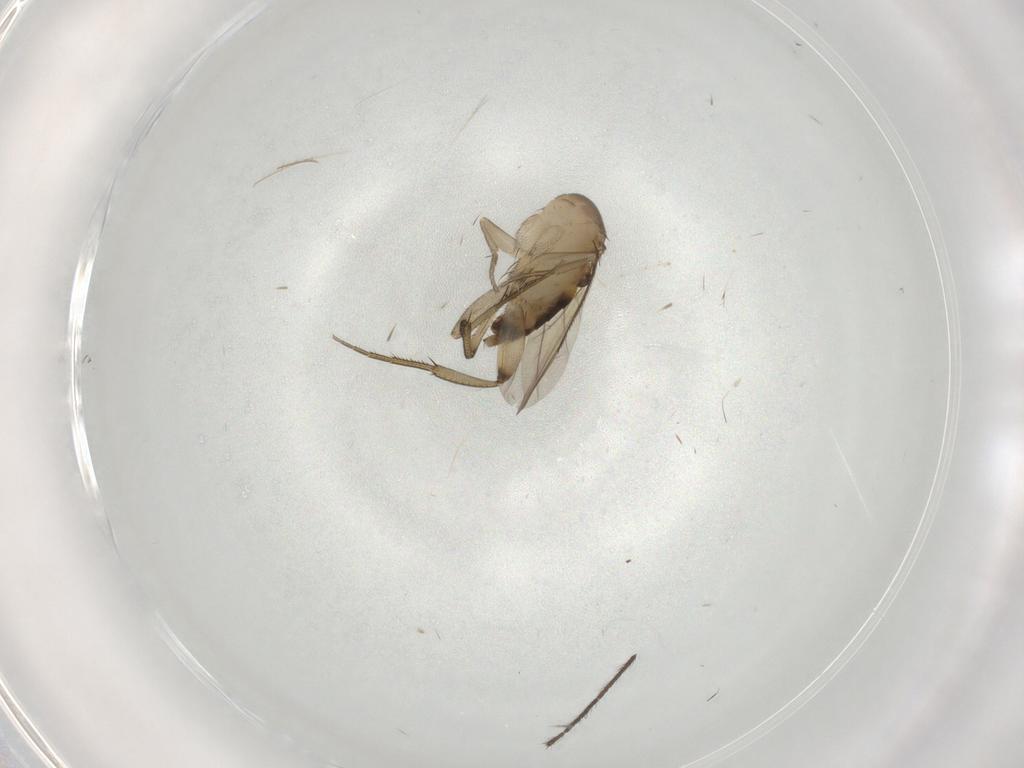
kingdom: Animalia
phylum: Arthropoda
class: Insecta
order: Diptera
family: Phoridae
